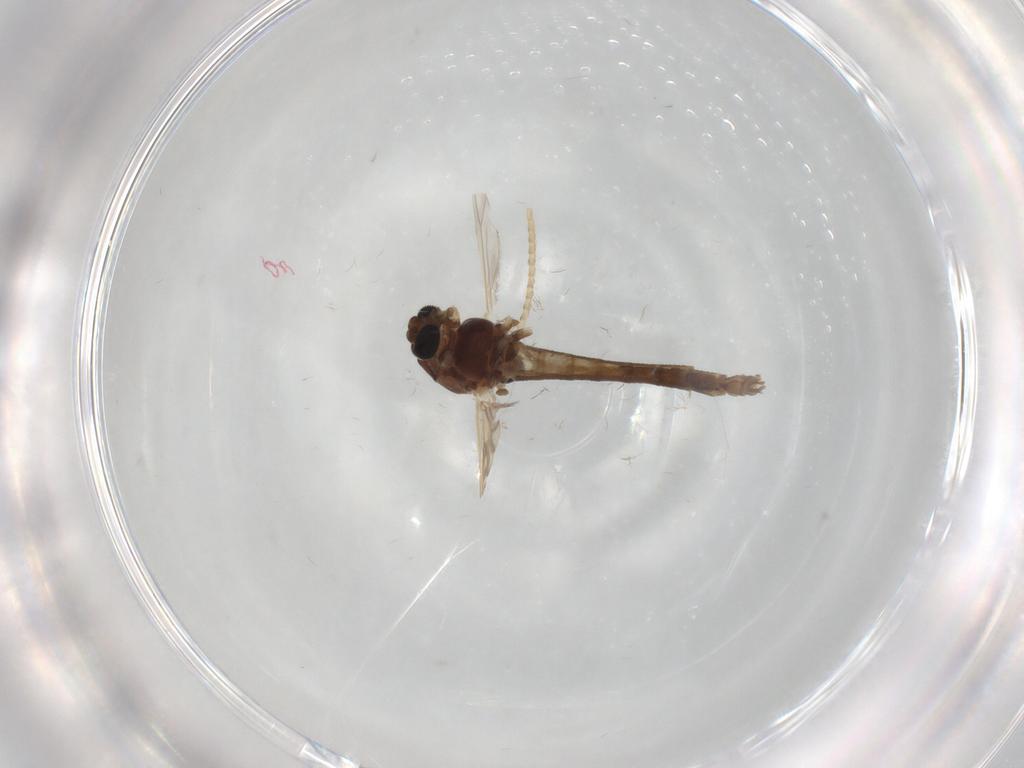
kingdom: Animalia
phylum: Arthropoda
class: Insecta
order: Diptera
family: Chironomidae
